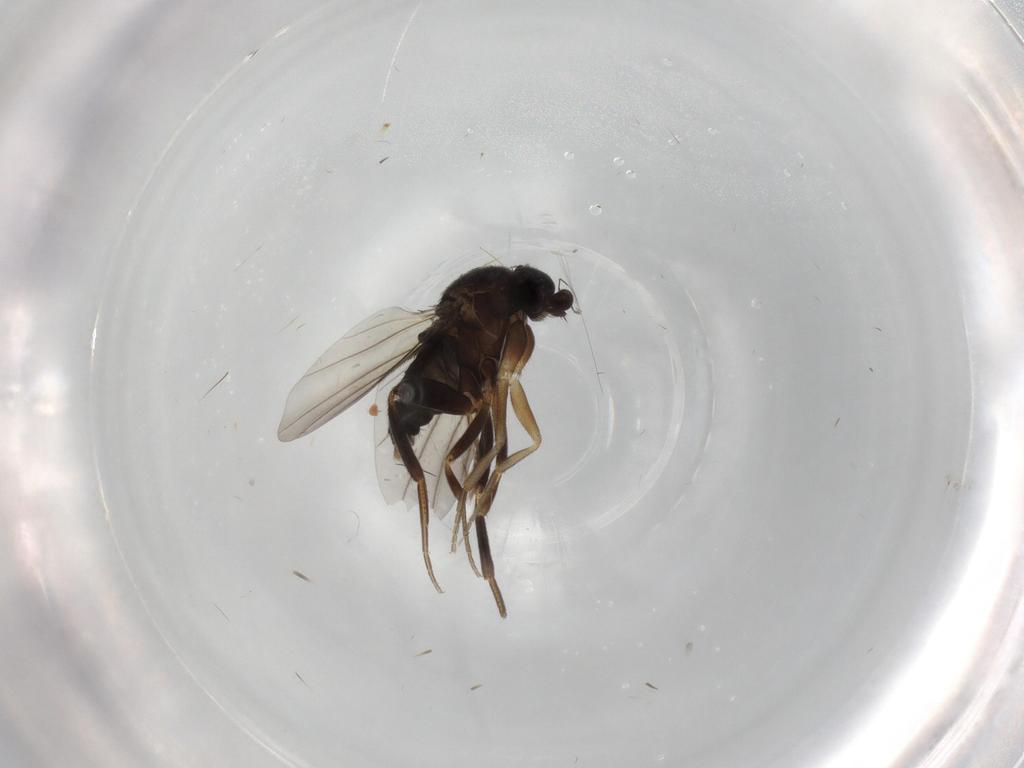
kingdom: Animalia
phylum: Arthropoda
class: Insecta
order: Diptera
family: Phoridae
